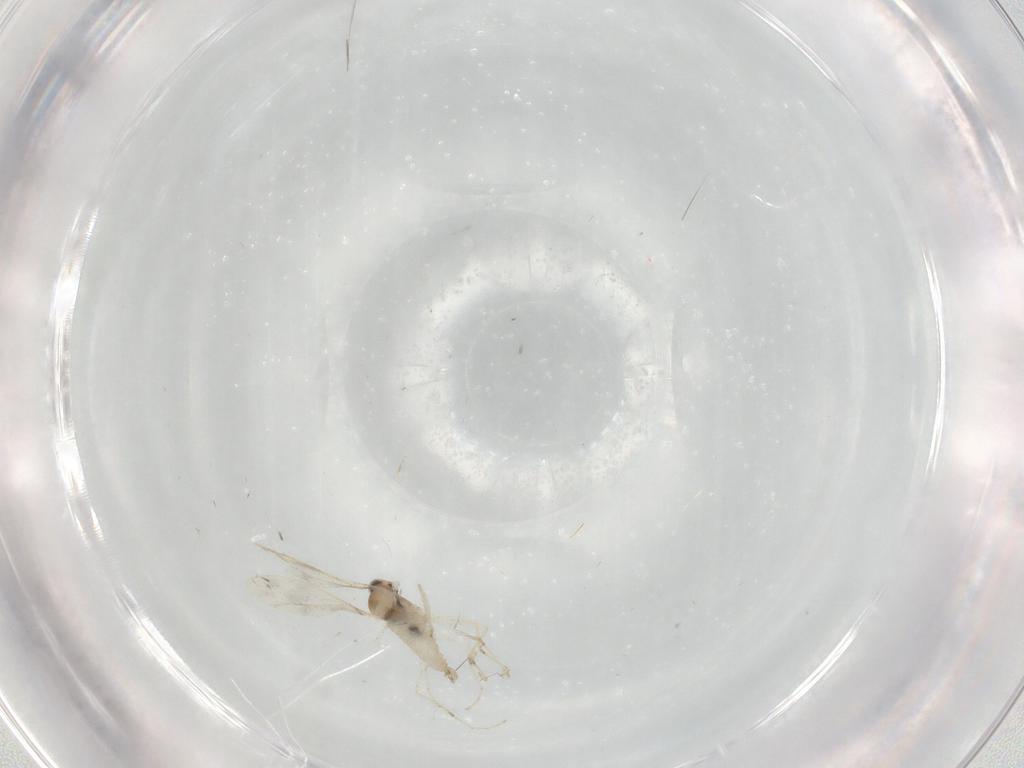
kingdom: Animalia
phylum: Arthropoda
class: Insecta
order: Diptera
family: Cecidomyiidae
